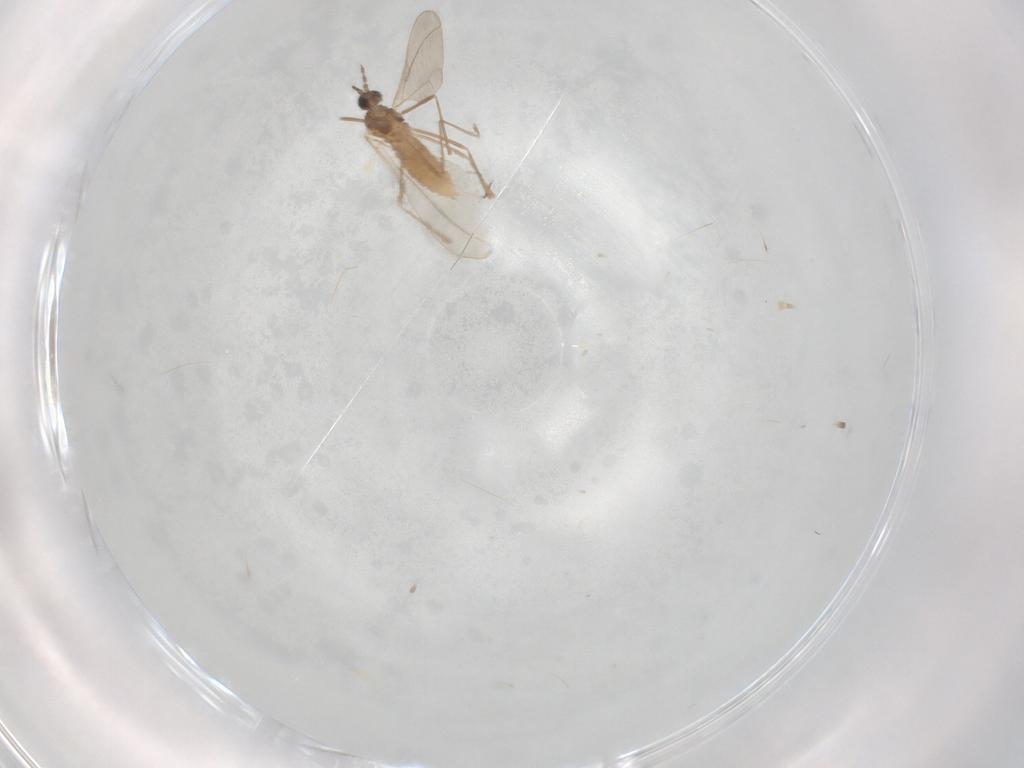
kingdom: Animalia
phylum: Arthropoda
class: Insecta
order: Diptera
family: Cecidomyiidae
